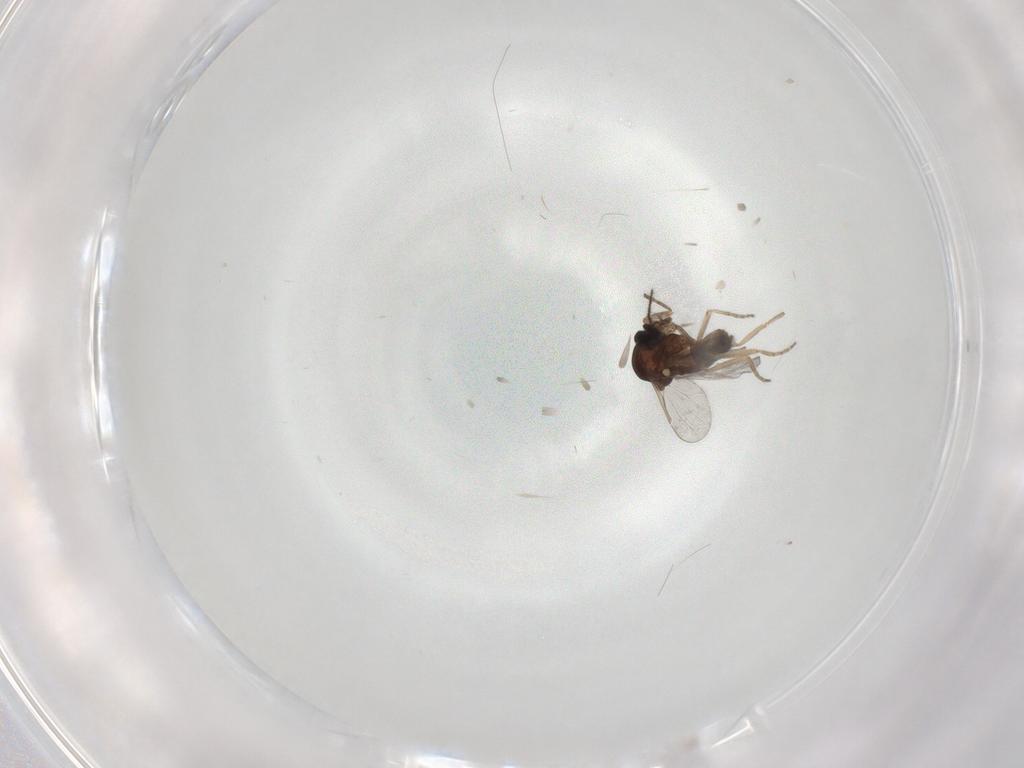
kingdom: Animalia
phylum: Arthropoda
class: Insecta
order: Diptera
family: Ceratopogonidae
